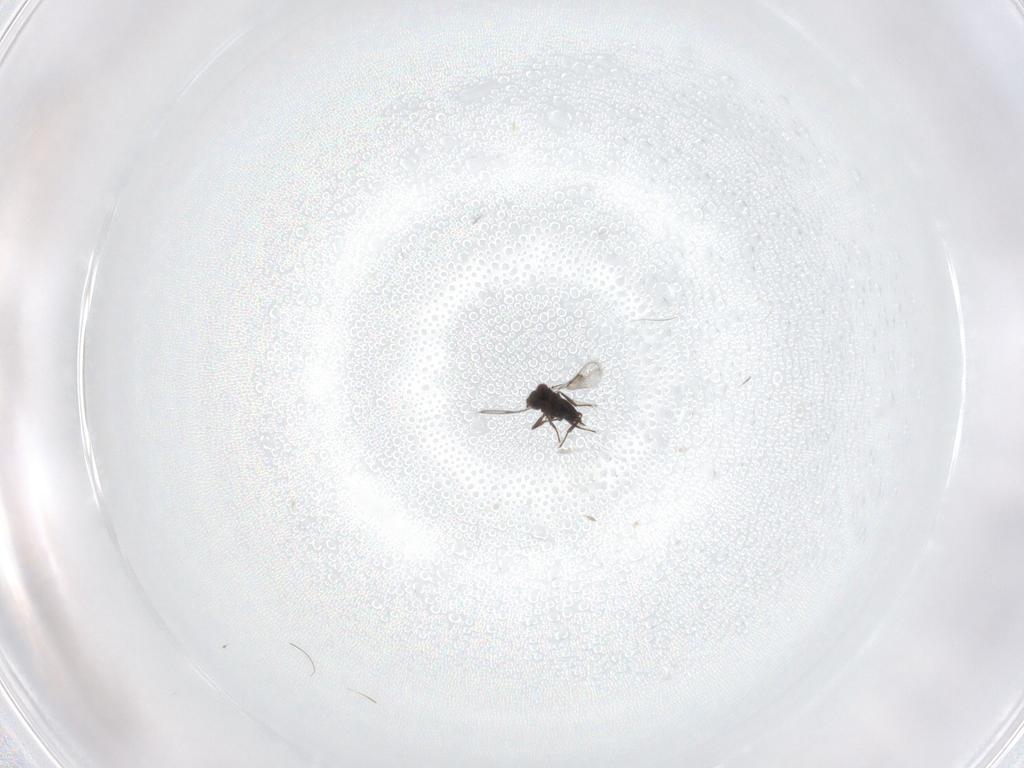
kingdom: Animalia
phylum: Arthropoda
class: Insecta
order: Hymenoptera
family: Trichogrammatidae
